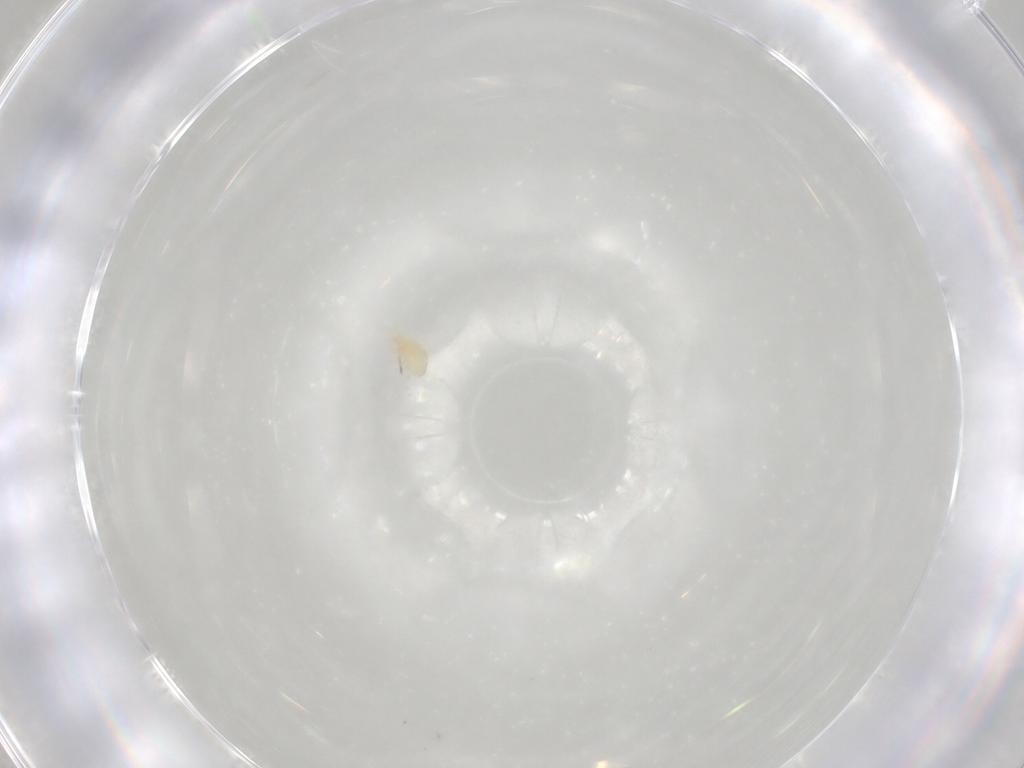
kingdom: Animalia
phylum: Arthropoda
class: Arachnida
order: Mesostigmata
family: Phytoseiidae
